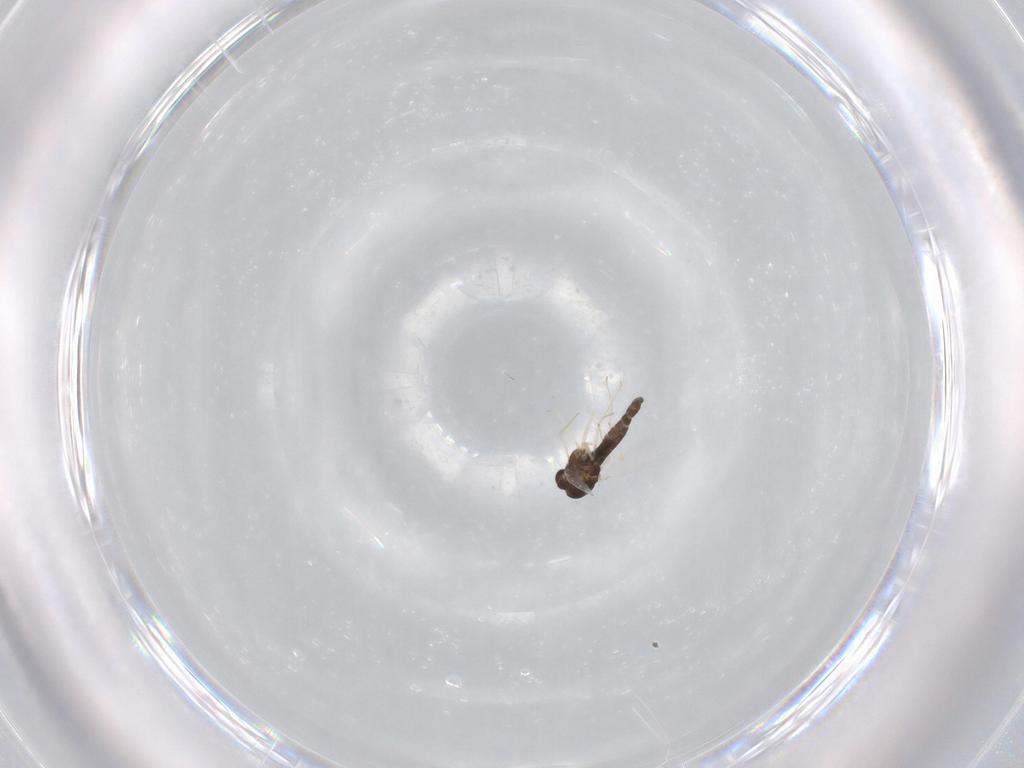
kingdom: Animalia
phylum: Arthropoda
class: Insecta
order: Diptera
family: Chironomidae
